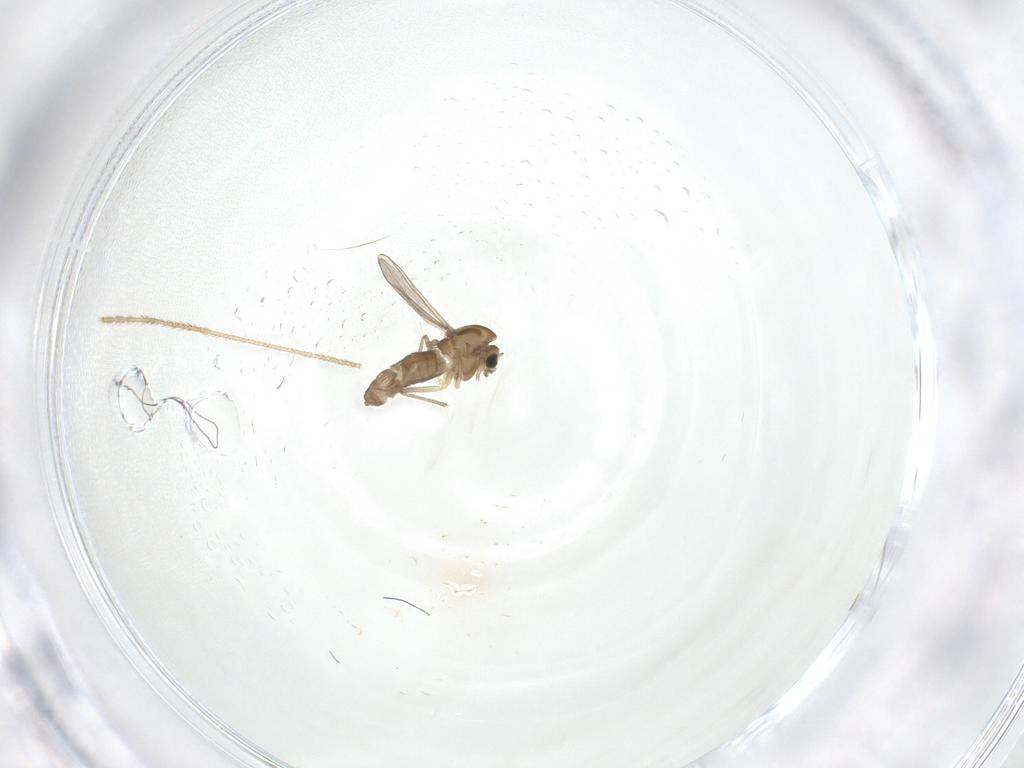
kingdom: Animalia
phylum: Arthropoda
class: Insecta
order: Diptera
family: Chironomidae
